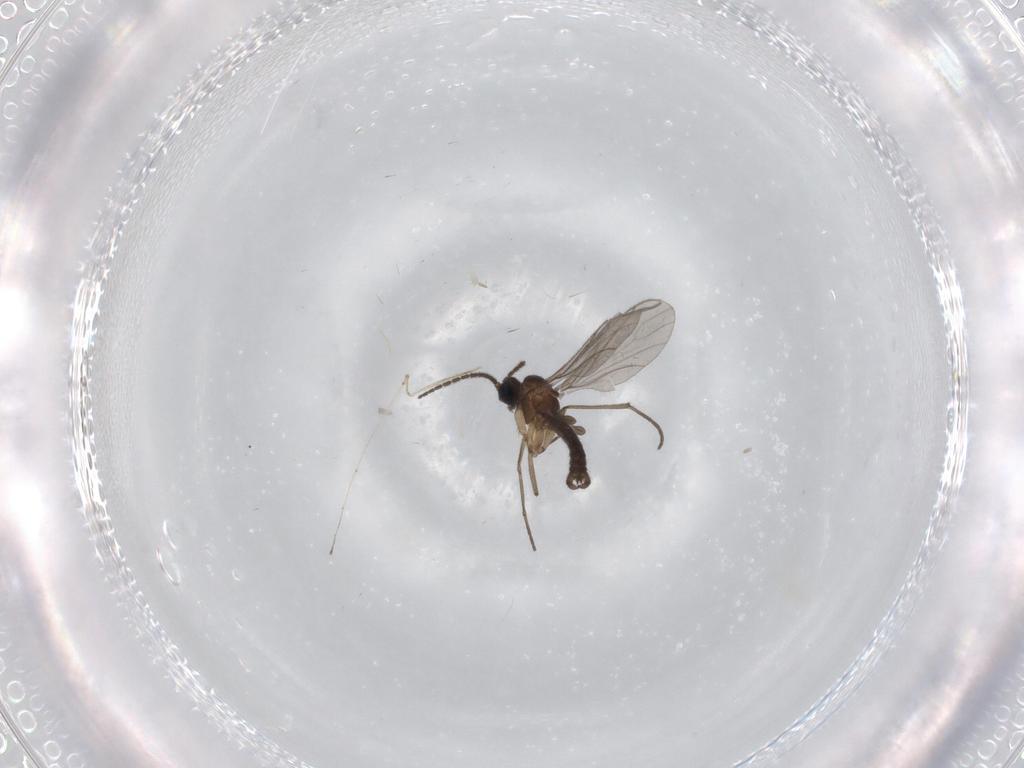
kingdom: Animalia
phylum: Arthropoda
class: Insecta
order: Diptera
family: Sciaridae
